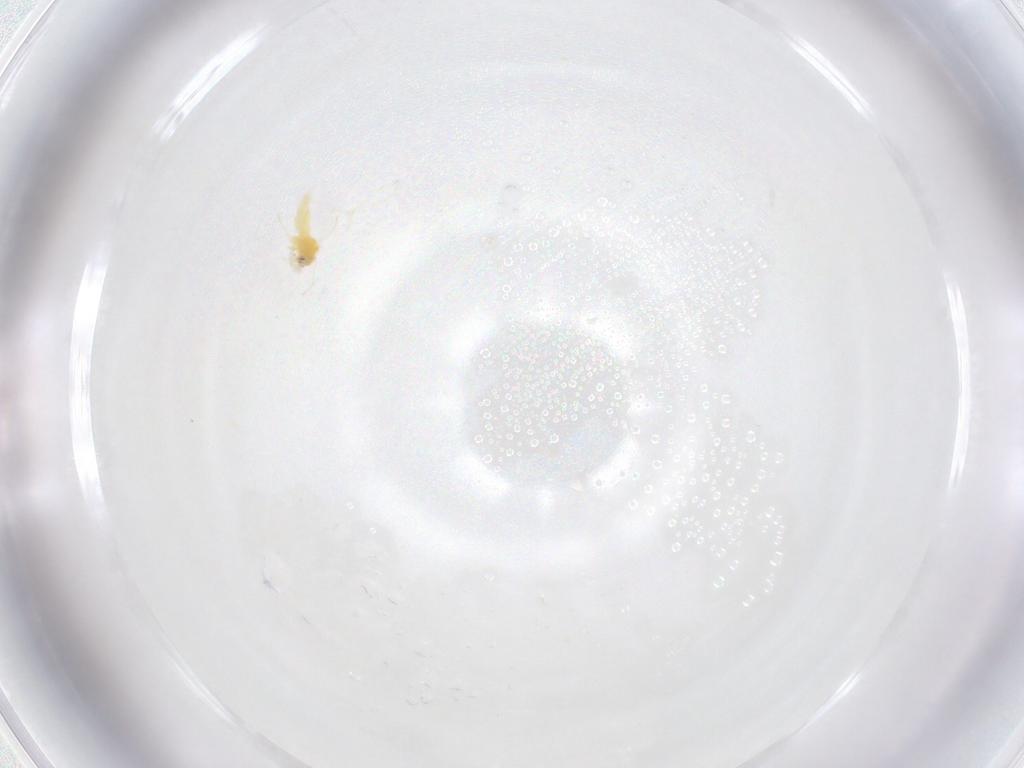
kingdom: Animalia
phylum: Arthropoda
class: Insecta
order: Hemiptera
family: Aleyrodidae
